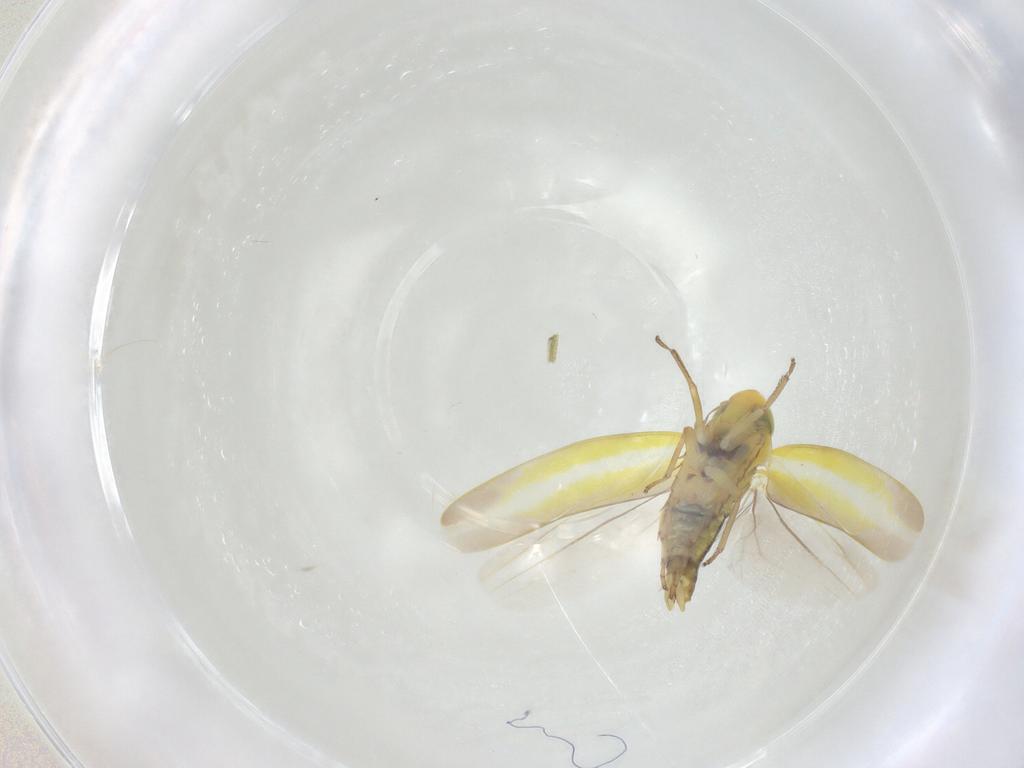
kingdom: Animalia
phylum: Arthropoda
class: Insecta
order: Hemiptera
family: Cicadellidae
